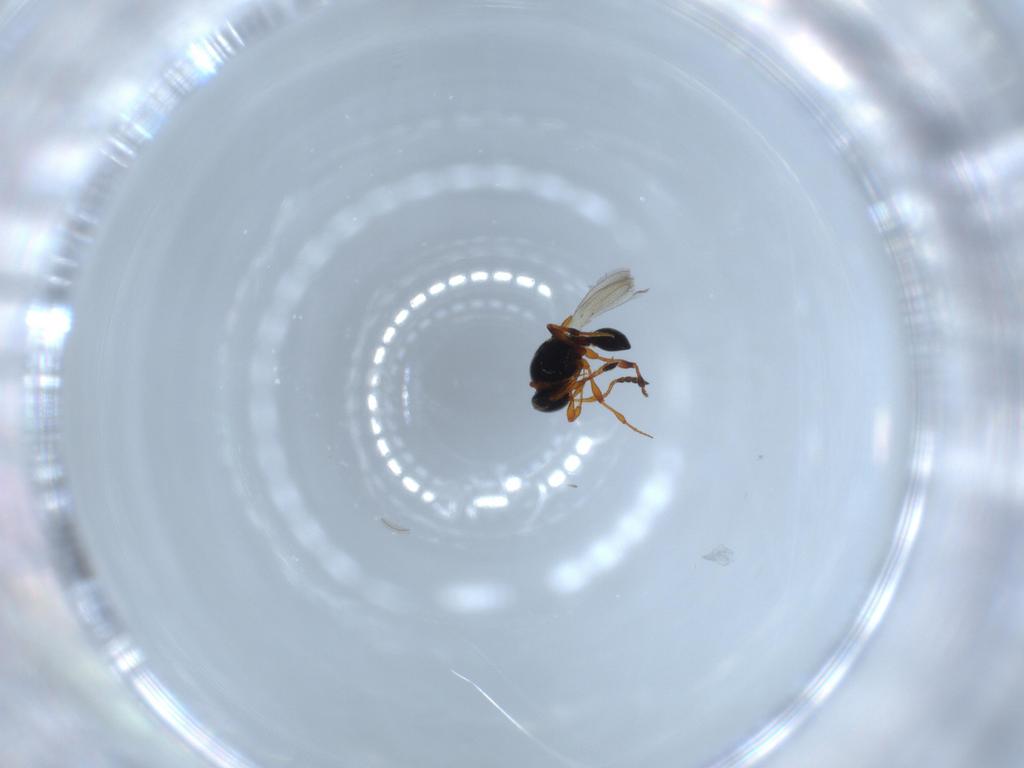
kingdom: Animalia
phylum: Arthropoda
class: Insecta
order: Hymenoptera
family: Platygastridae
